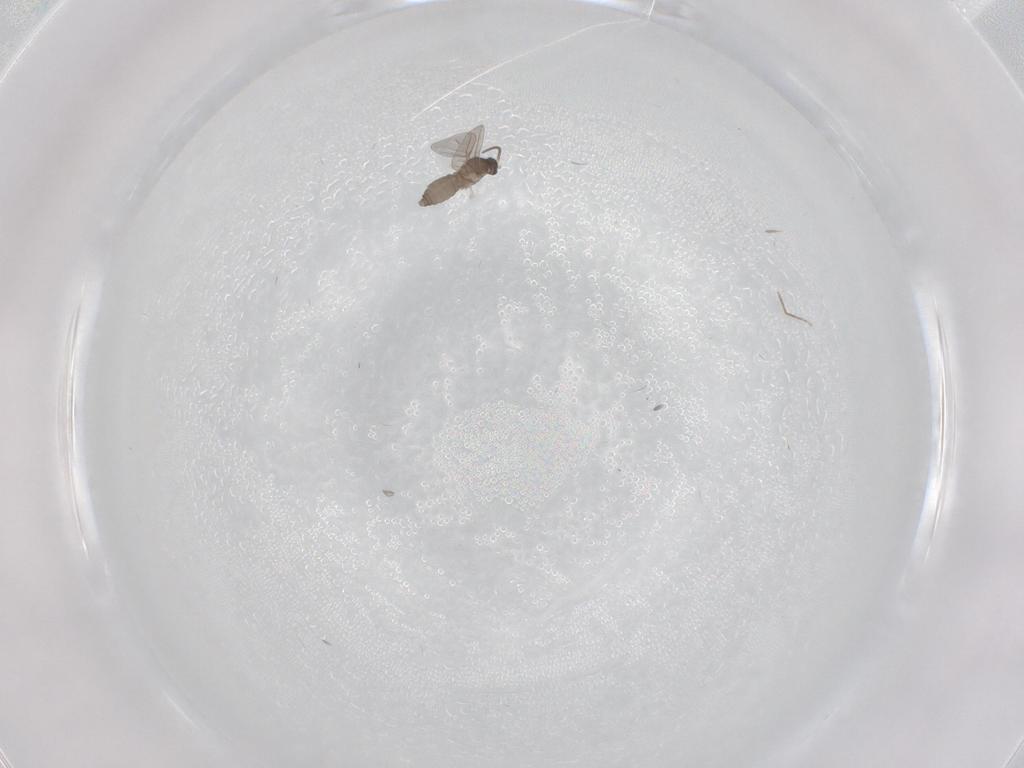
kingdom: Animalia
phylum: Arthropoda
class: Insecta
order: Diptera
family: Cecidomyiidae
